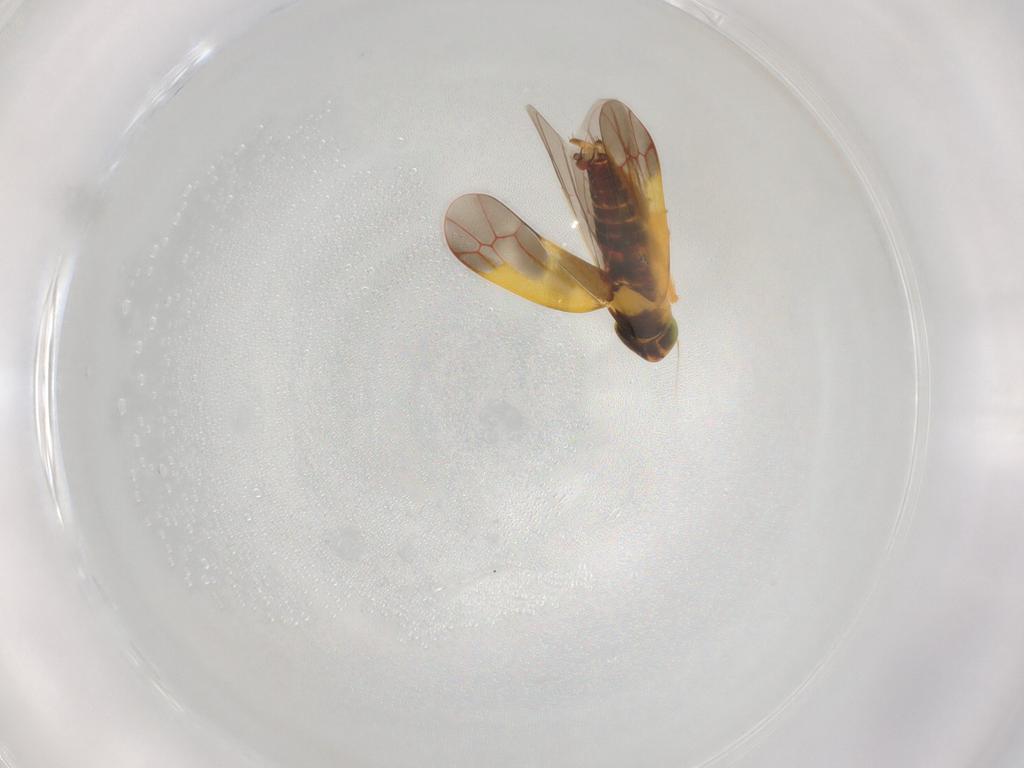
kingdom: Animalia
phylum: Arthropoda
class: Insecta
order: Hemiptera
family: Cicadellidae
